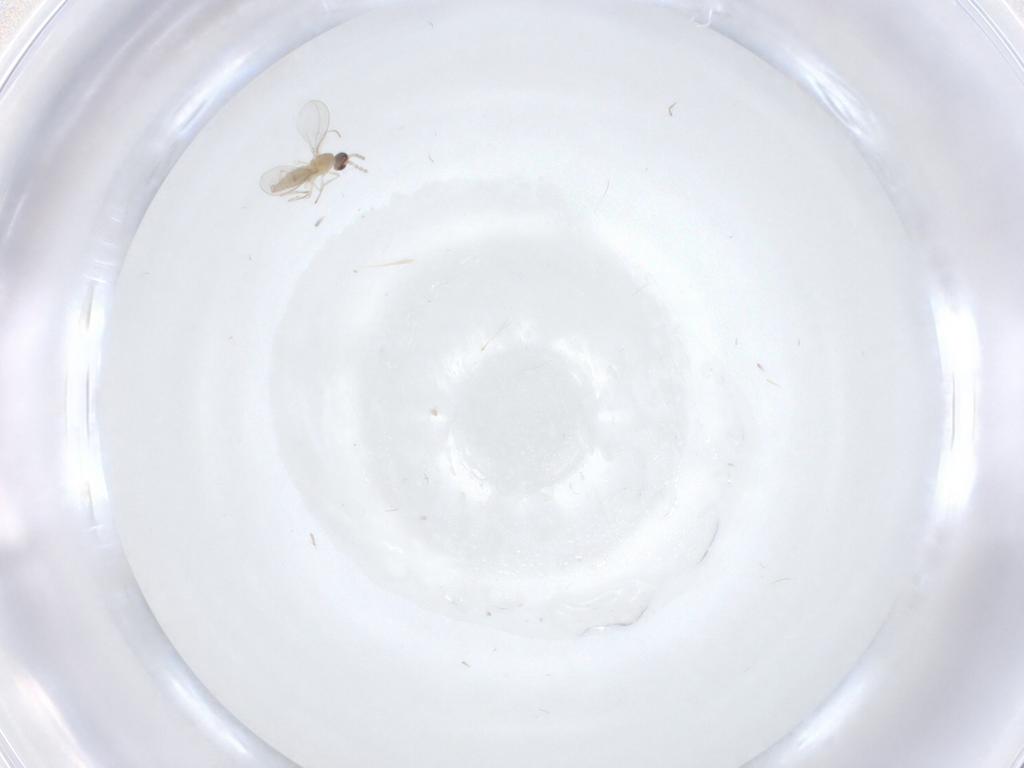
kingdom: Animalia
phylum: Arthropoda
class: Insecta
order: Diptera
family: Cecidomyiidae
